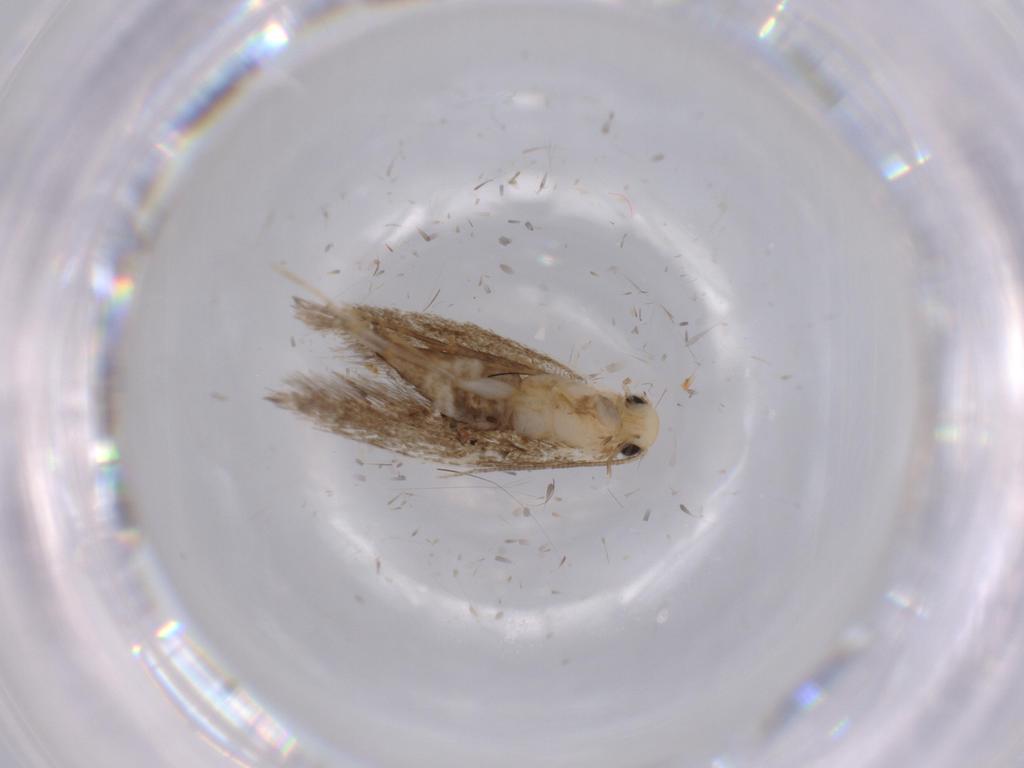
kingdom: Animalia
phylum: Arthropoda
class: Insecta
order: Lepidoptera
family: Tineidae
